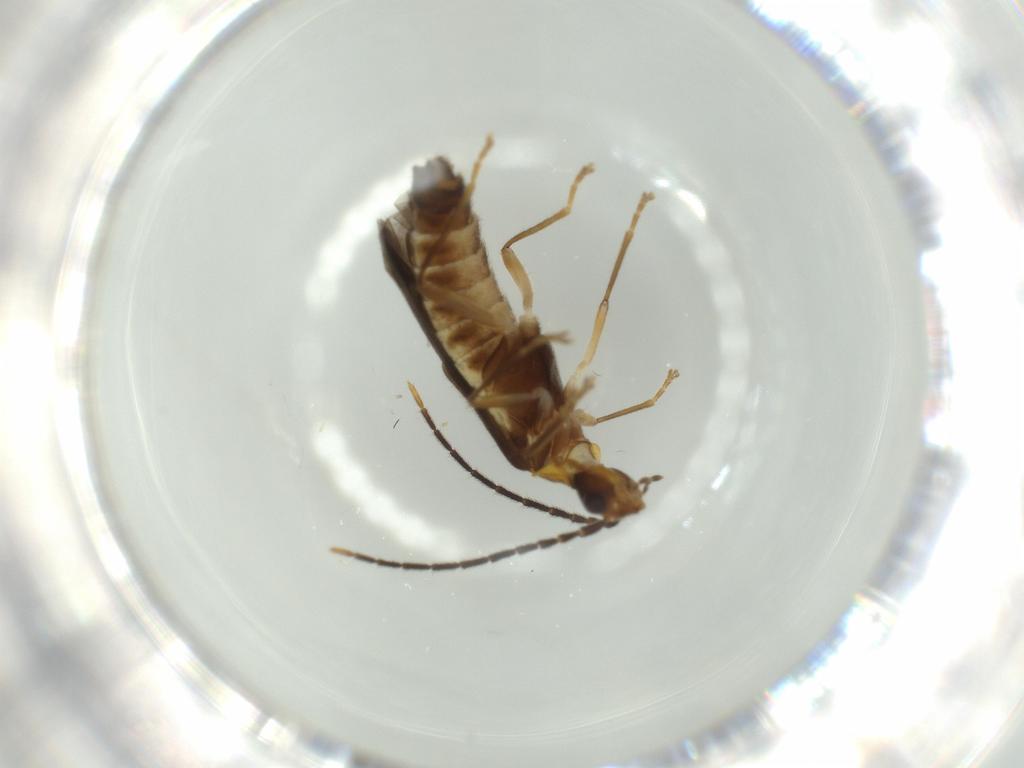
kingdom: Animalia
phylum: Arthropoda
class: Insecta
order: Coleoptera
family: Cantharidae
